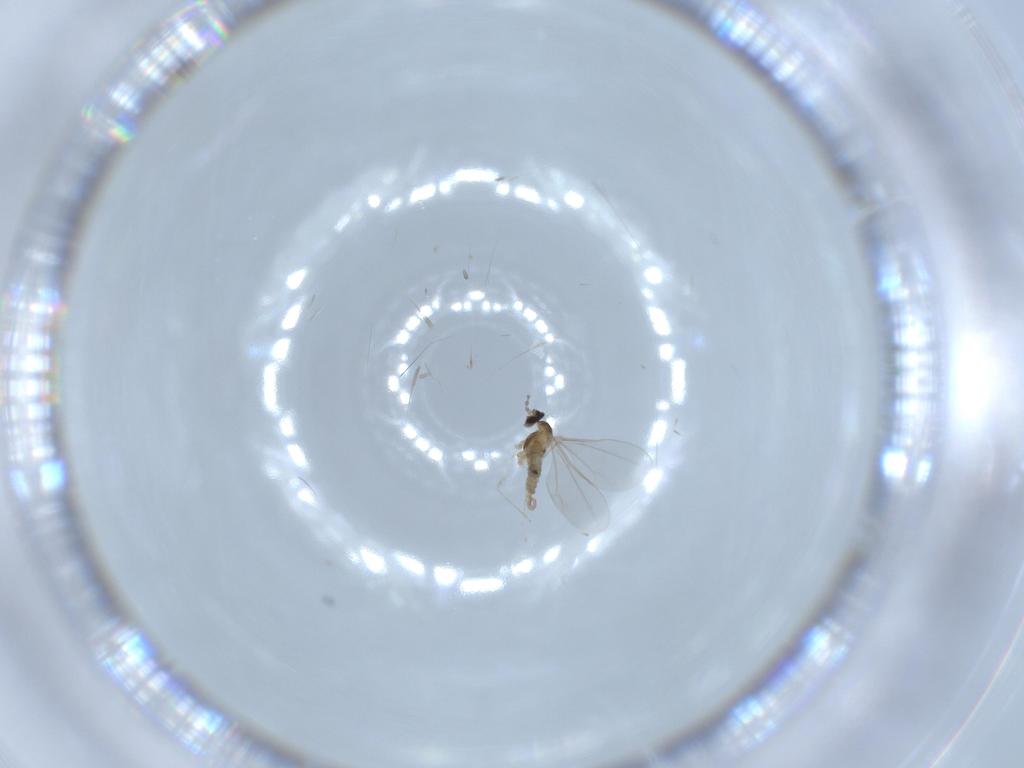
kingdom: Animalia
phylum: Arthropoda
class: Insecta
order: Diptera
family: Cecidomyiidae
